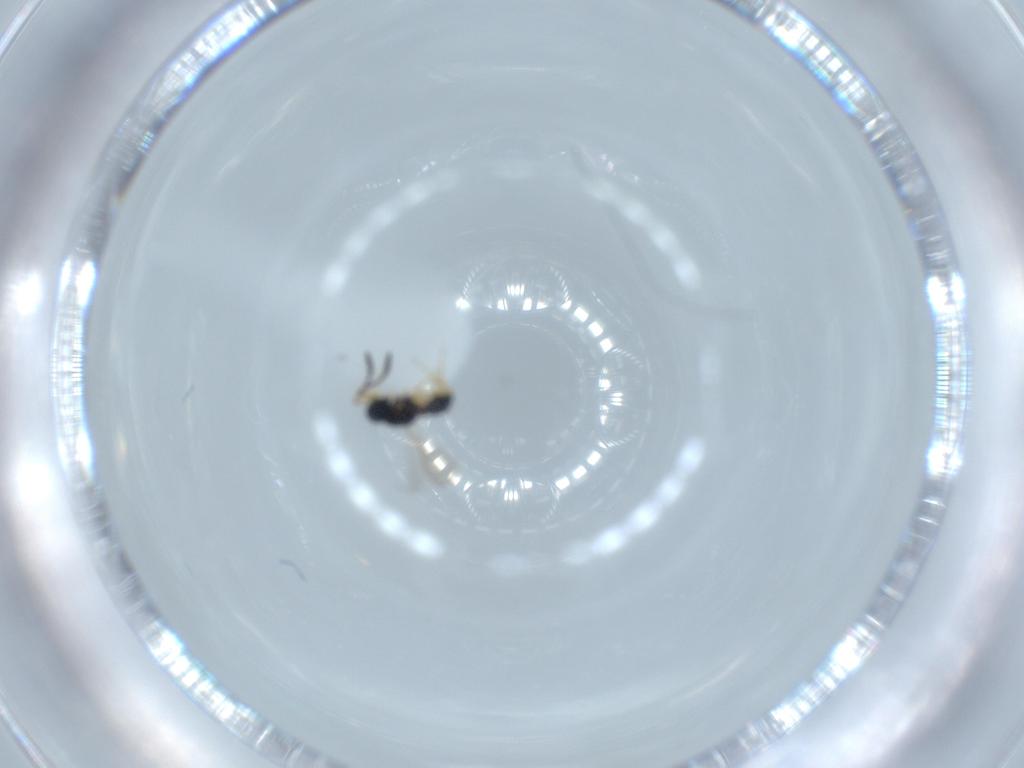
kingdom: Animalia
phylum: Arthropoda
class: Insecta
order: Hymenoptera
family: Scelionidae
